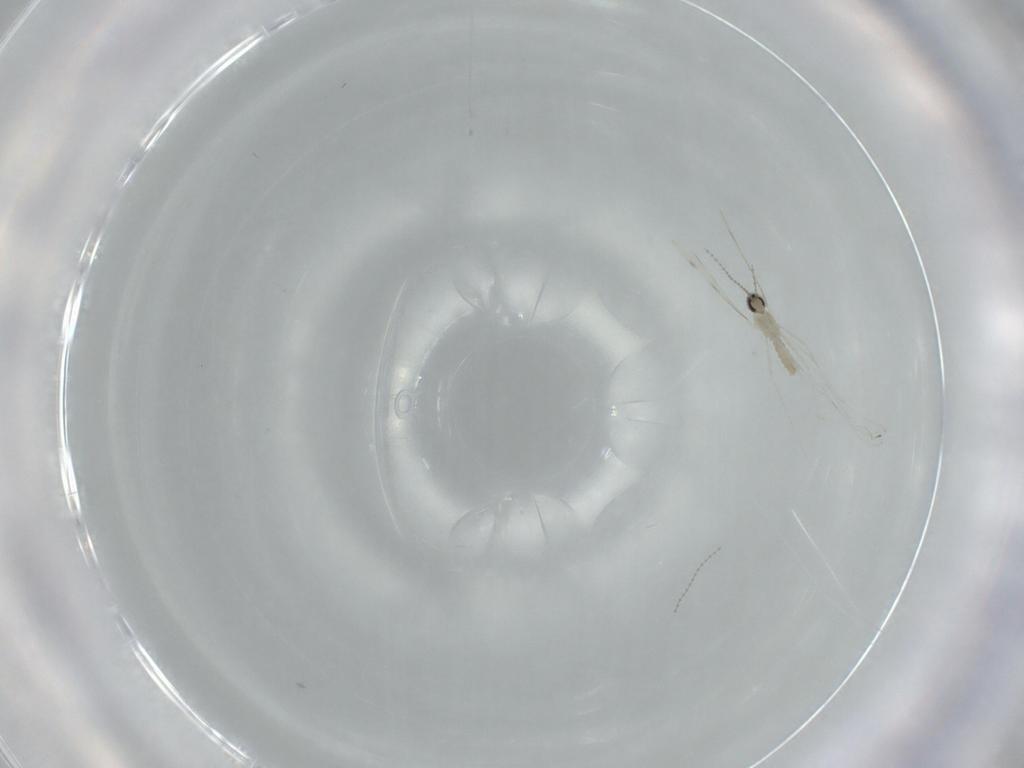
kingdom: Animalia
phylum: Arthropoda
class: Insecta
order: Diptera
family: Cecidomyiidae
